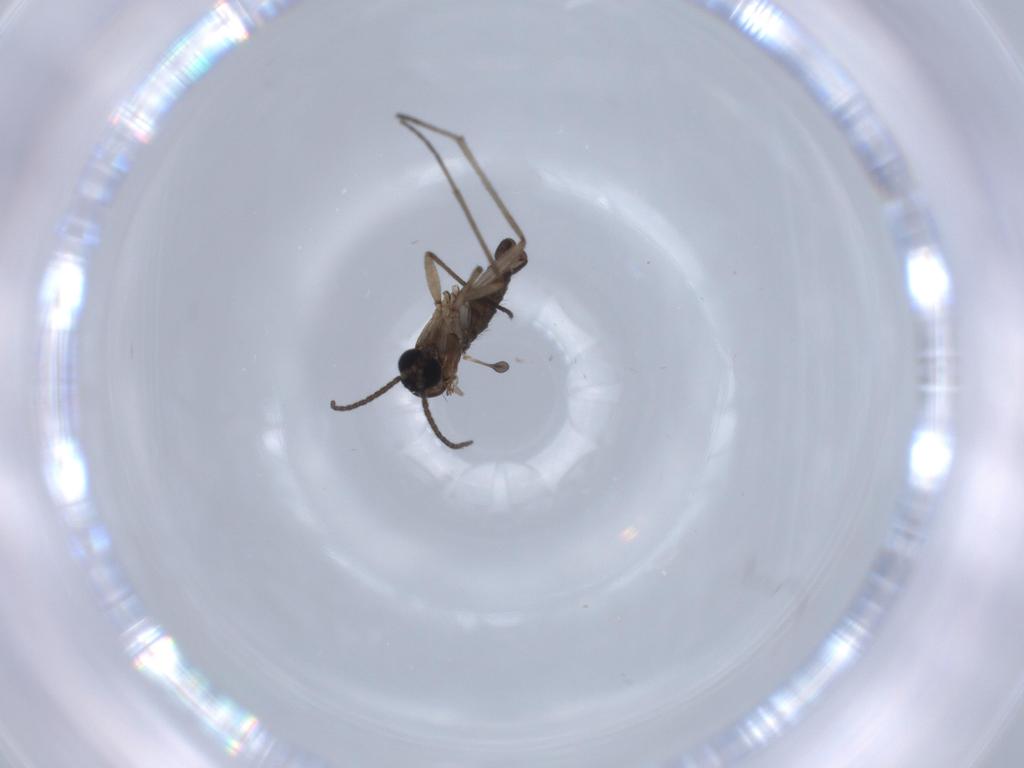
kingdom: Animalia
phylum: Arthropoda
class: Insecta
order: Diptera
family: Sciaridae
